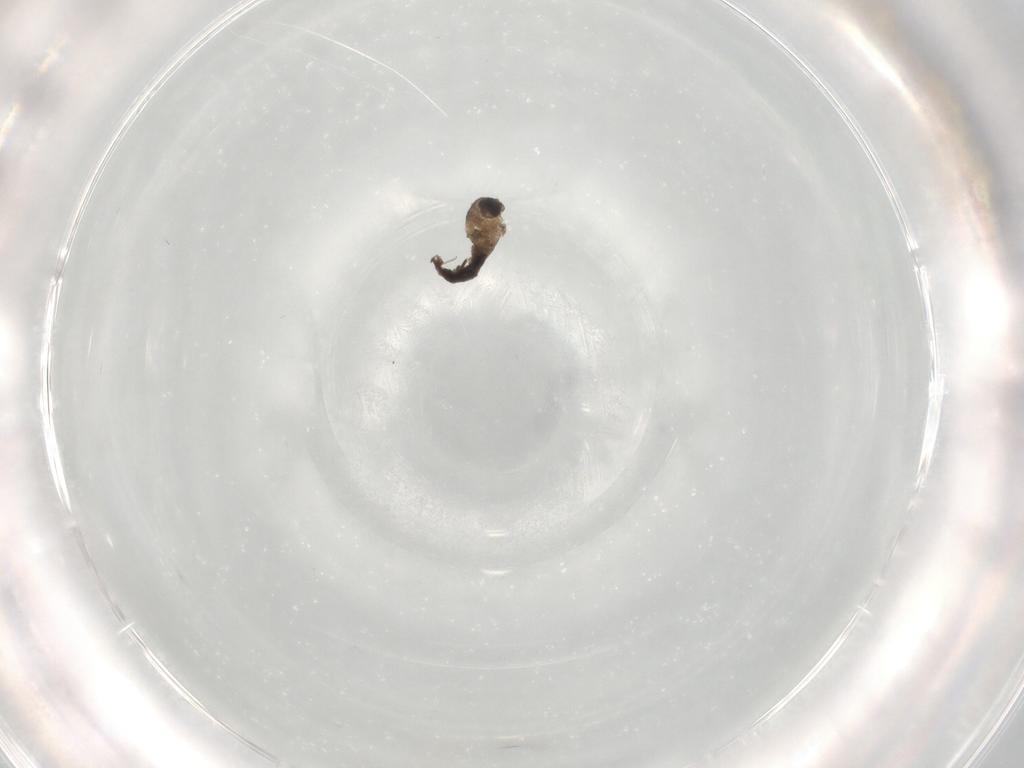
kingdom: Animalia
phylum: Arthropoda
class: Insecta
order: Diptera
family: Cecidomyiidae
